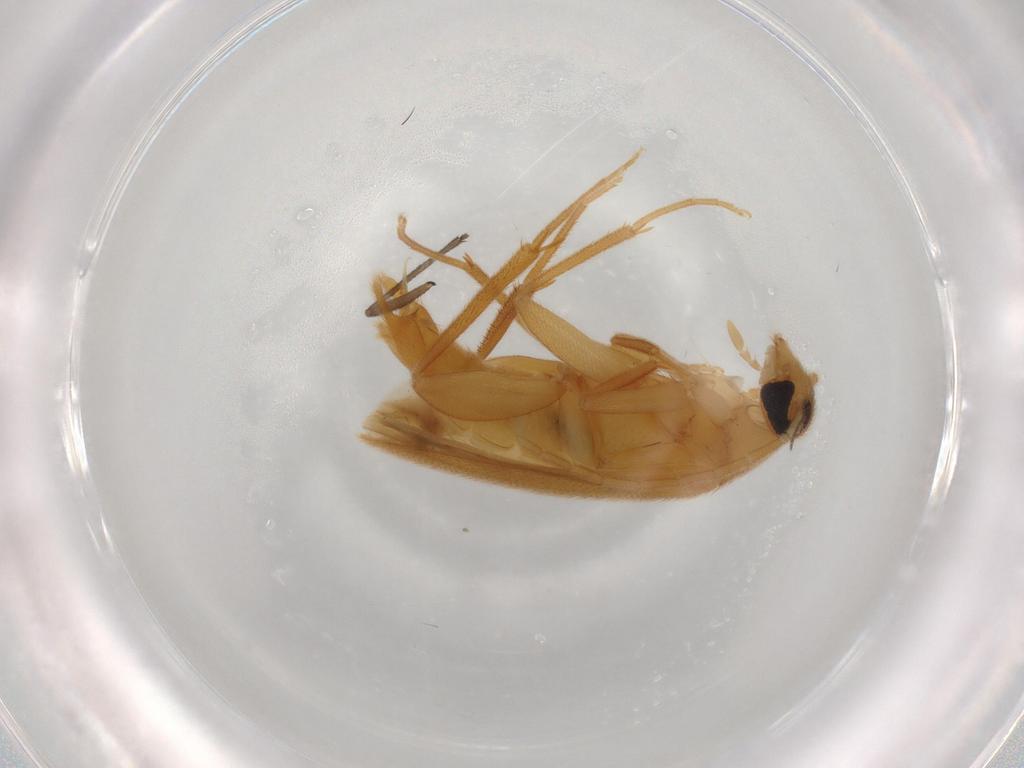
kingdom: Animalia
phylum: Arthropoda
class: Insecta
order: Coleoptera
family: Scraptiidae
